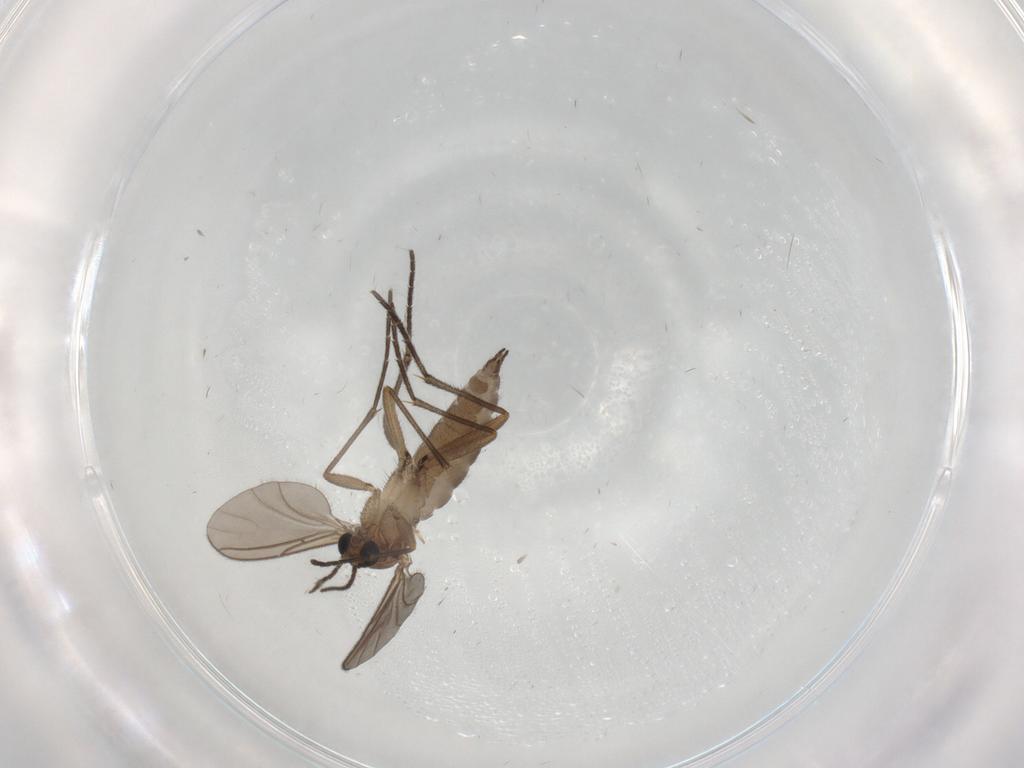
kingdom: Animalia
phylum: Arthropoda
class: Insecta
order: Diptera
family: Sciaridae
